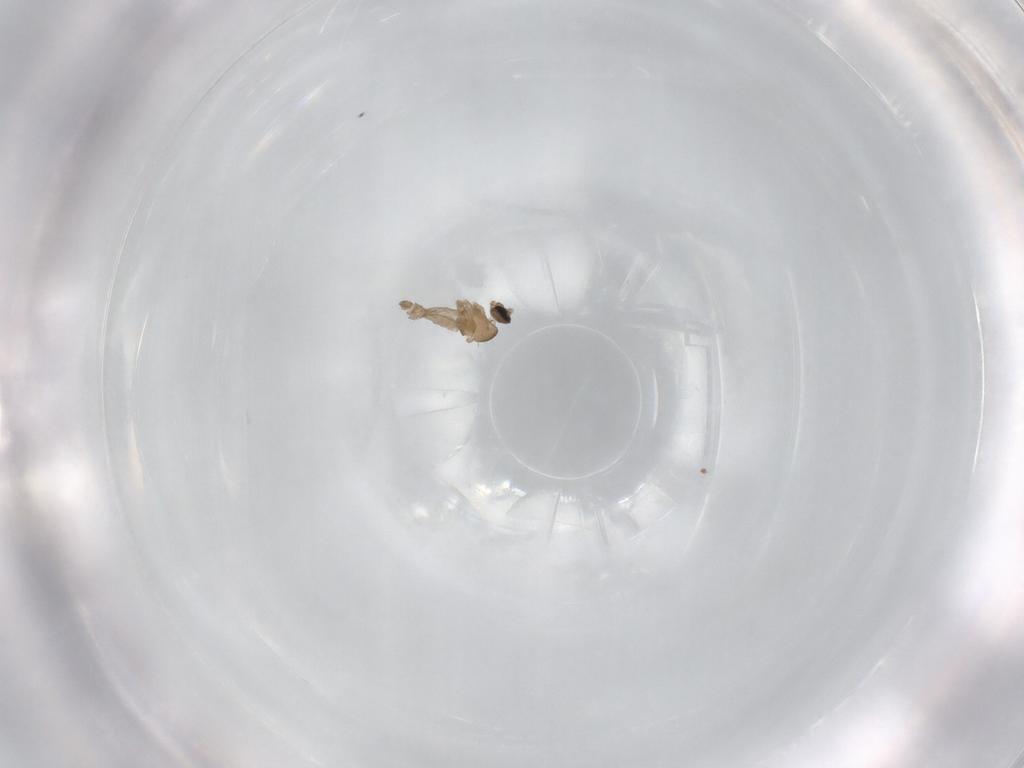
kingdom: Animalia
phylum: Arthropoda
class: Insecta
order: Diptera
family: Cecidomyiidae
